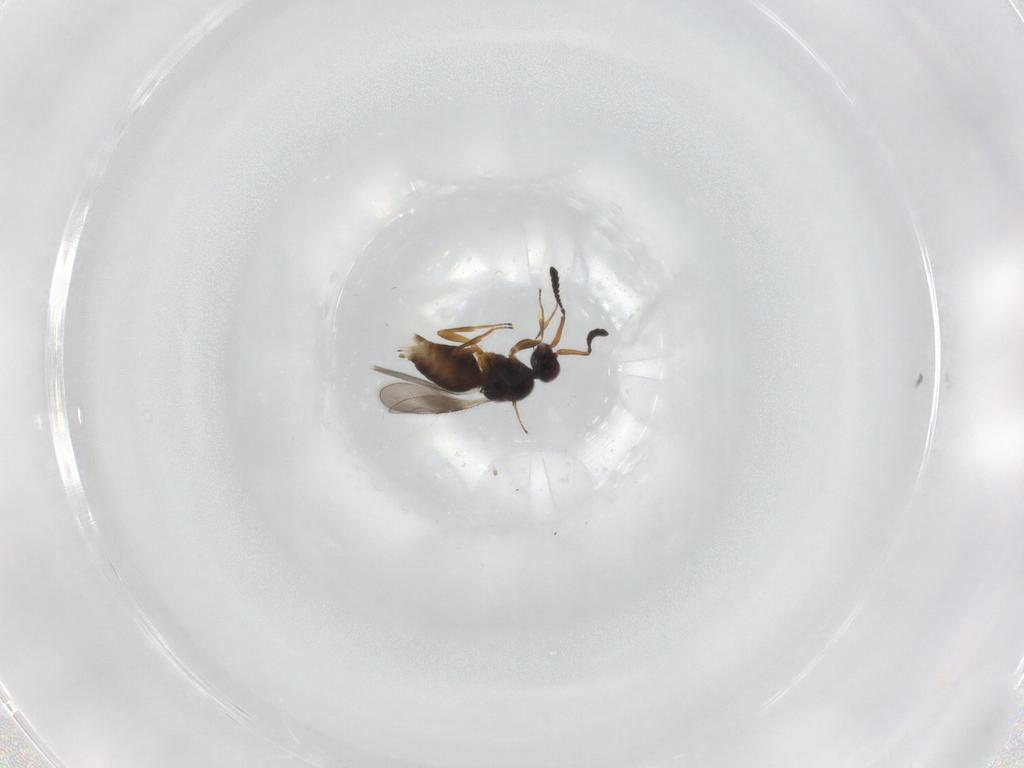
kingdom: Animalia
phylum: Arthropoda
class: Insecta
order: Hymenoptera
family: Ceraphronidae
